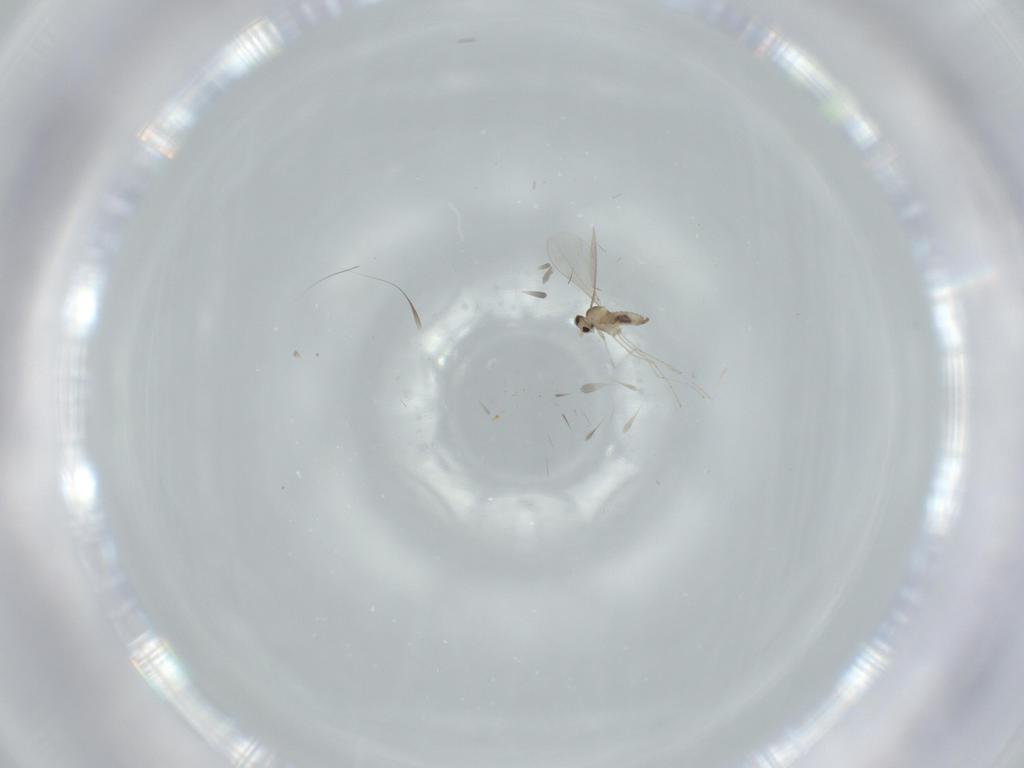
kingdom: Animalia
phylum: Arthropoda
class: Insecta
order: Diptera
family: Cecidomyiidae
